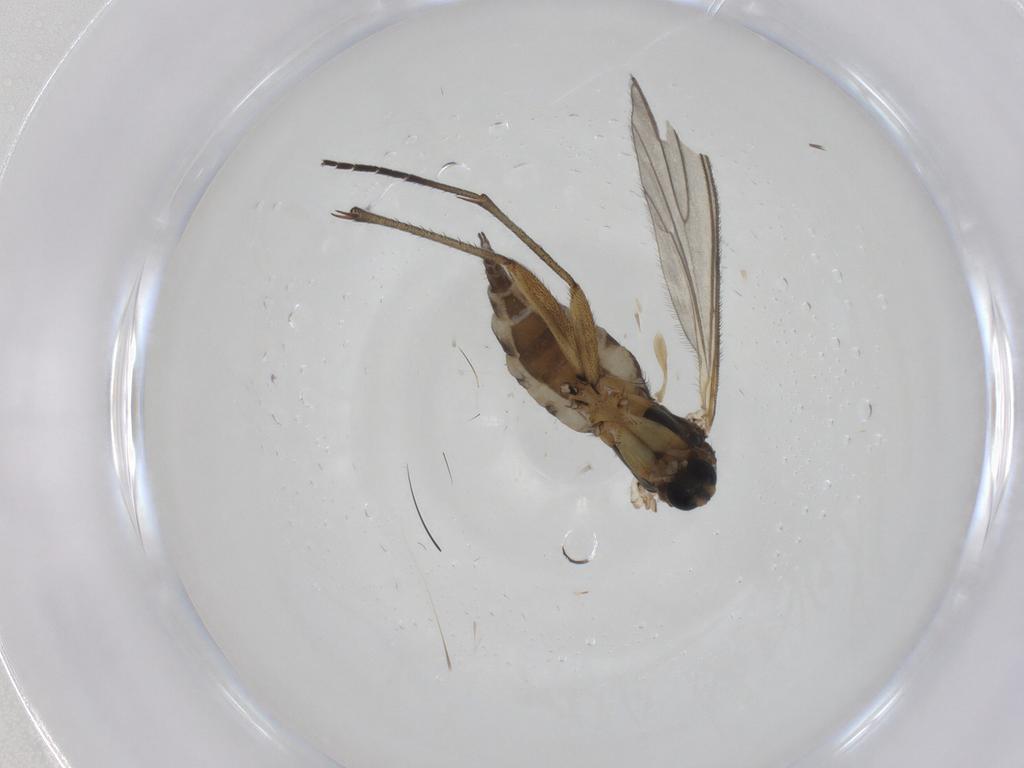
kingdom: Animalia
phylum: Arthropoda
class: Insecta
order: Diptera
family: Sciaridae
